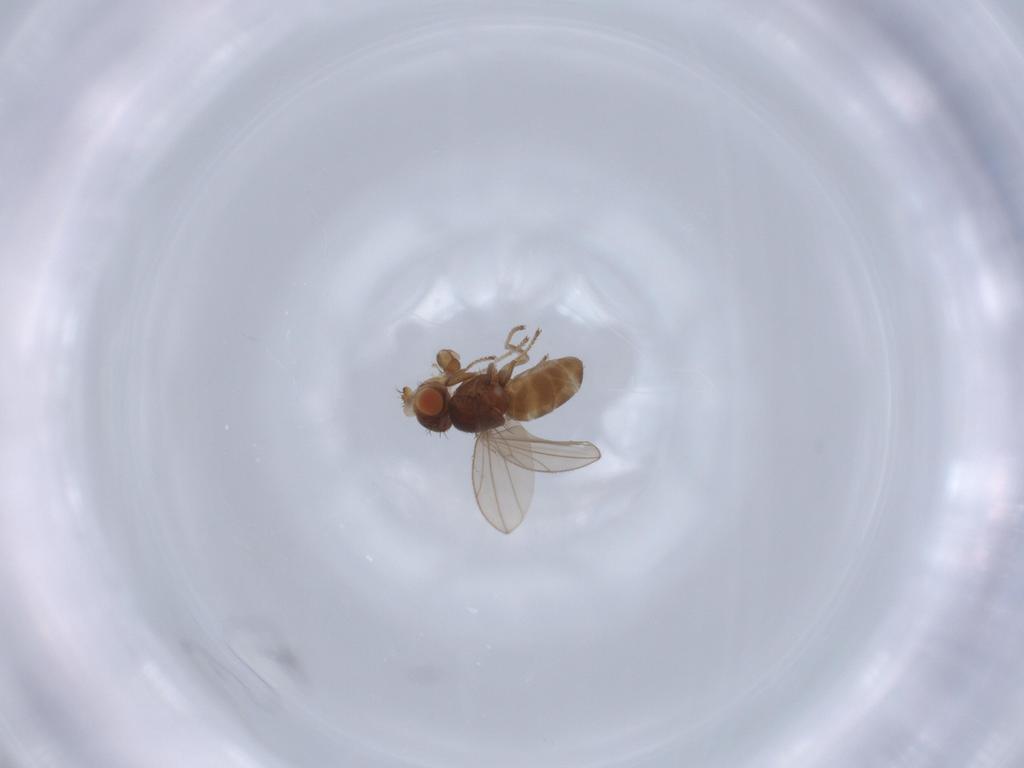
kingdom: Animalia
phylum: Arthropoda
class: Insecta
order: Diptera
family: Ephydridae
